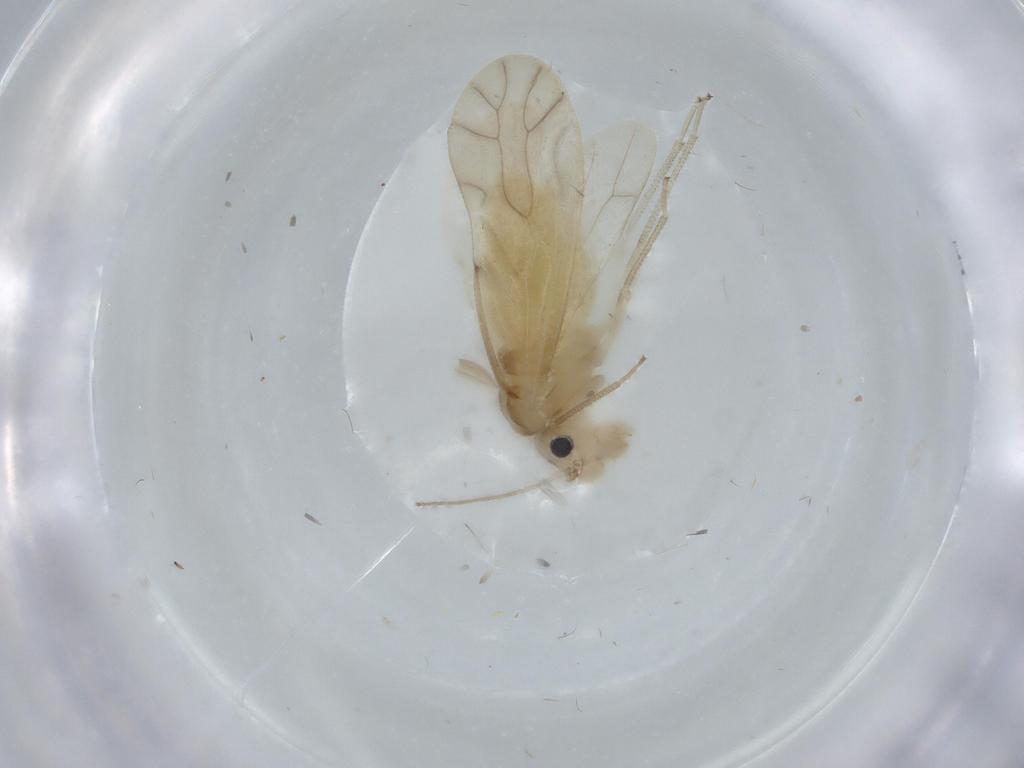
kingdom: Animalia
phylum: Arthropoda
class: Insecta
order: Psocodea
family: Caeciliusidae
